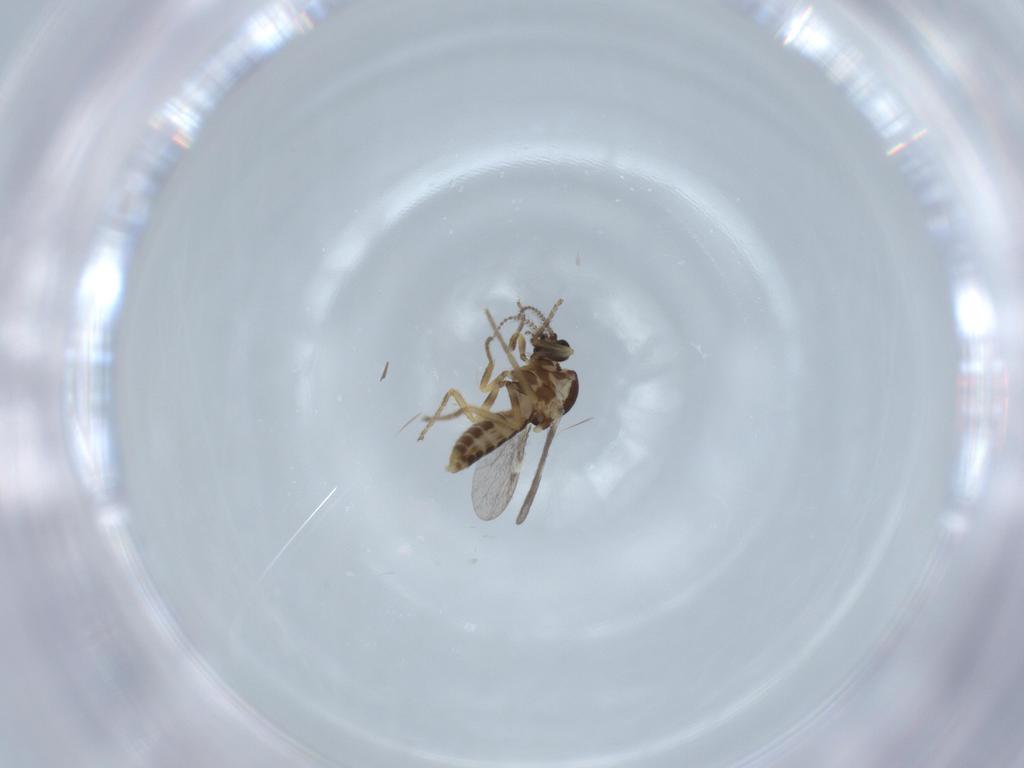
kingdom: Animalia
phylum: Arthropoda
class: Insecta
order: Diptera
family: Ceratopogonidae
